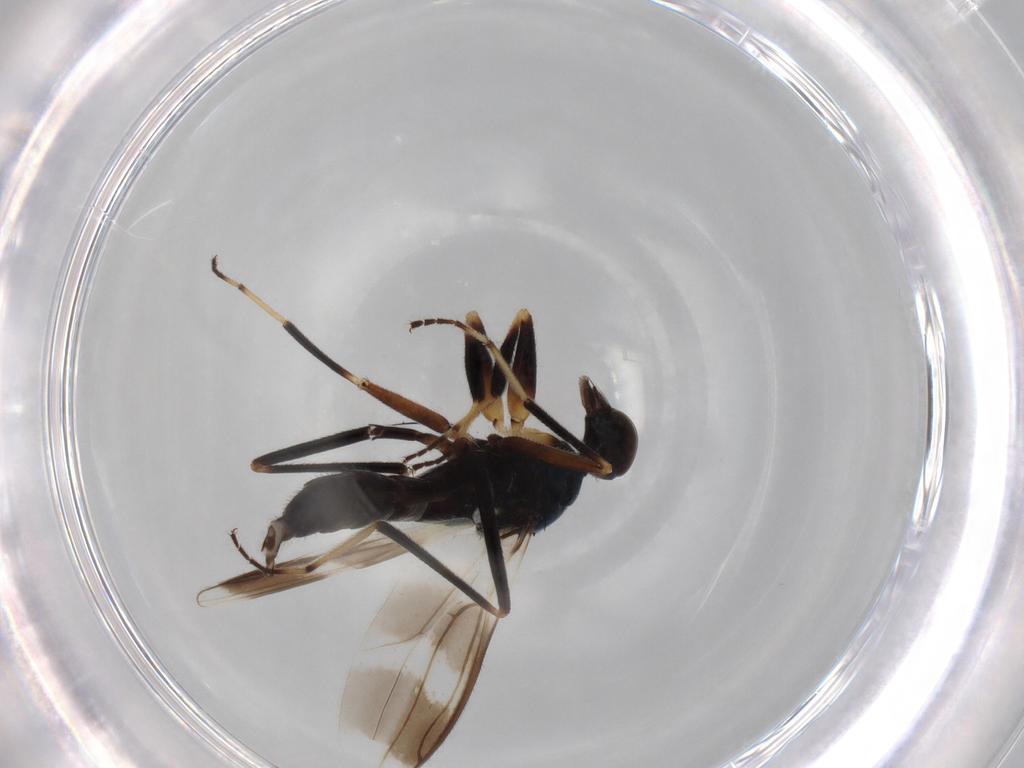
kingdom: Animalia
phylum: Arthropoda
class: Insecta
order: Diptera
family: Hybotidae
